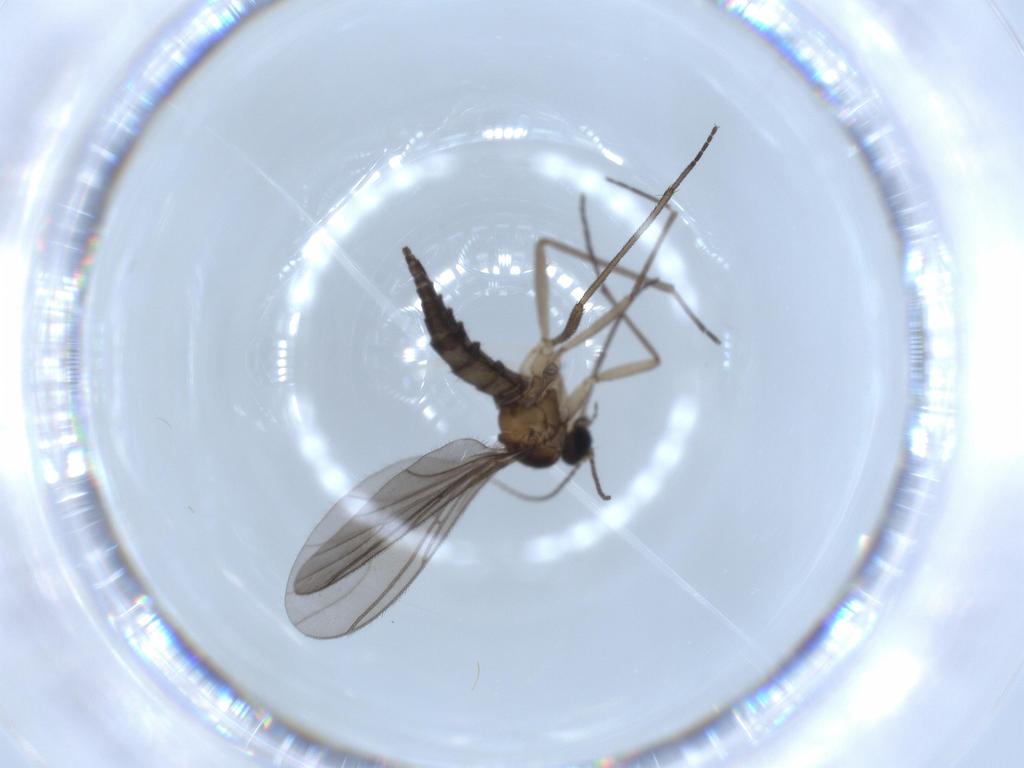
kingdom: Animalia
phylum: Arthropoda
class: Insecta
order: Diptera
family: Sciaridae
